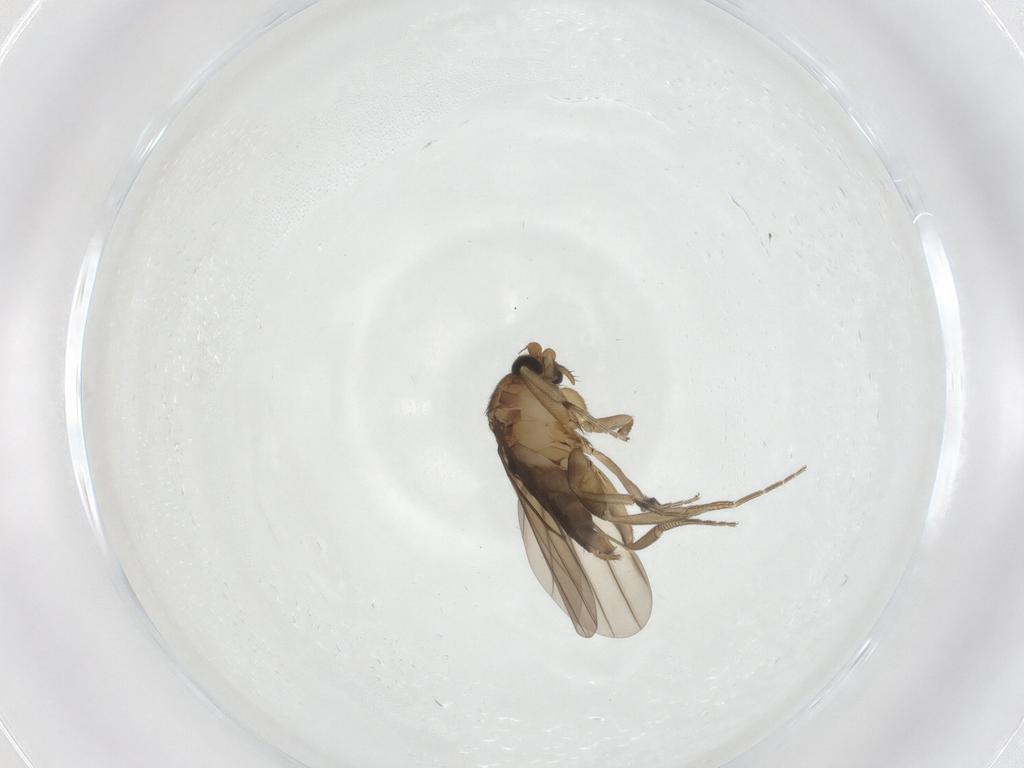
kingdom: Animalia
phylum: Arthropoda
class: Insecta
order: Diptera
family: Phoridae
